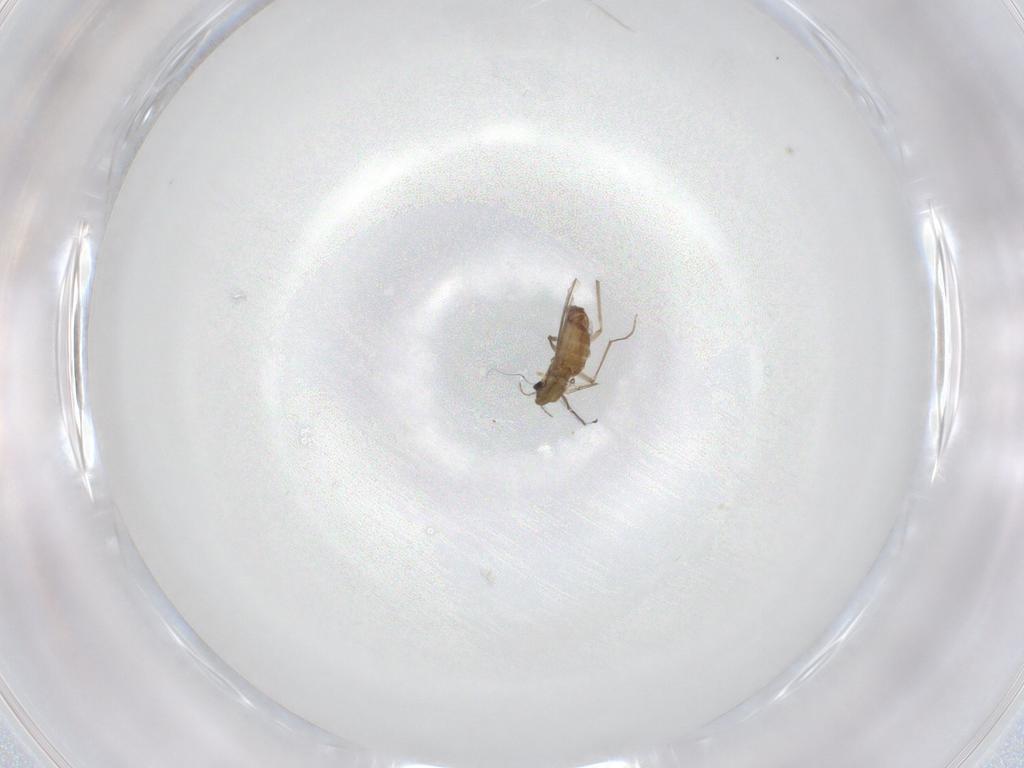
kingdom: Animalia
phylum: Arthropoda
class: Insecta
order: Diptera
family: Chironomidae
